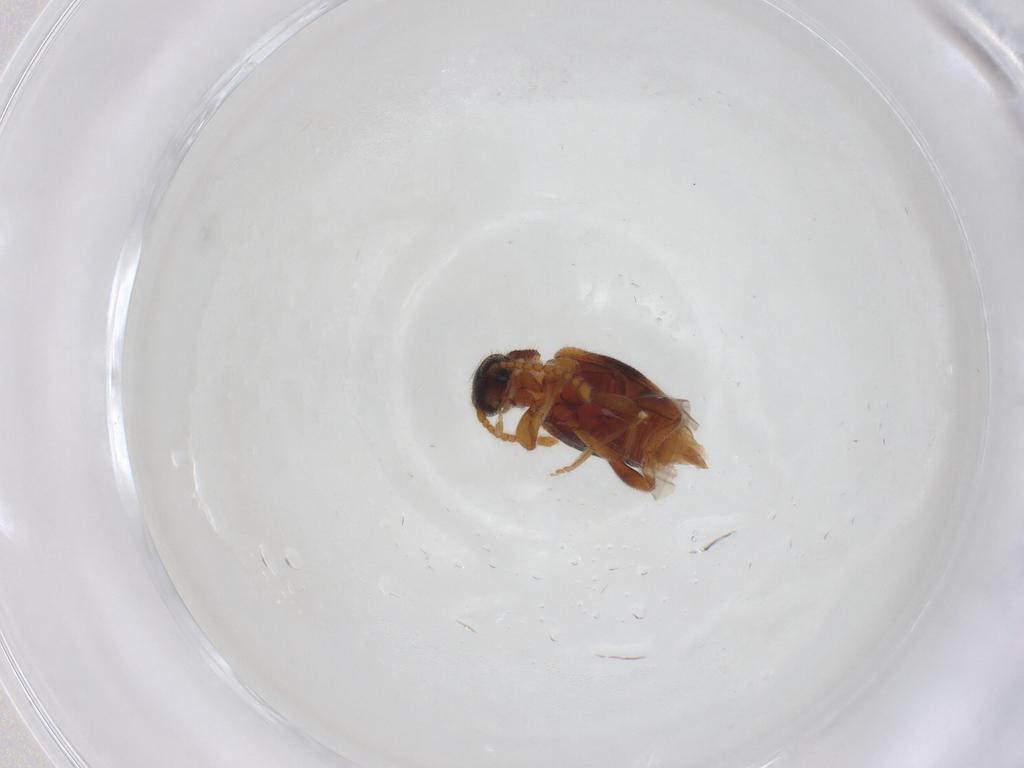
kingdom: Animalia
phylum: Arthropoda
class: Insecta
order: Coleoptera
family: Aderidae
